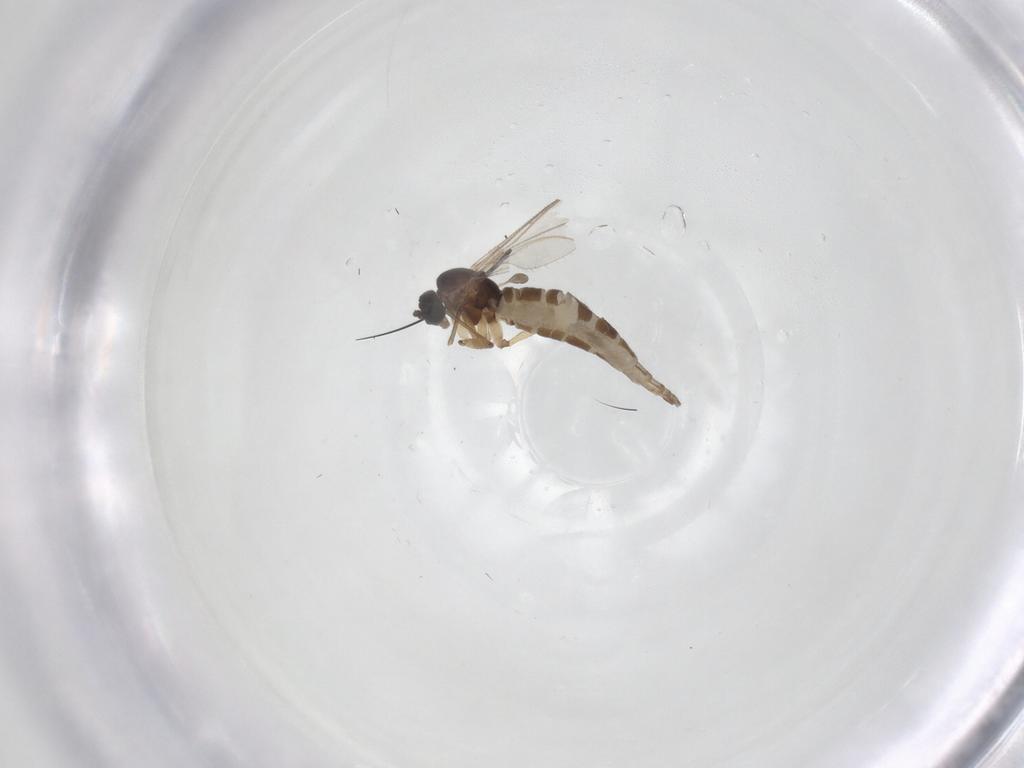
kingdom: Animalia
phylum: Arthropoda
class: Insecta
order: Diptera
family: Sciaridae
